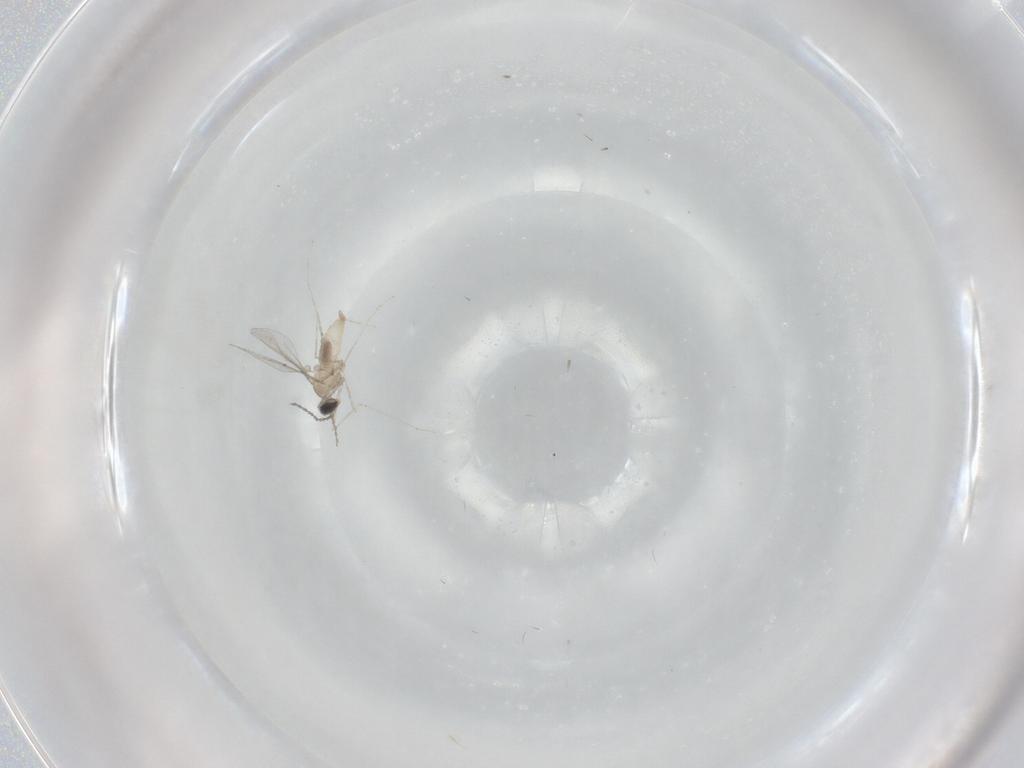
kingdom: Animalia
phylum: Arthropoda
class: Insecta
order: Diptera
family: Cecidomyiidae
